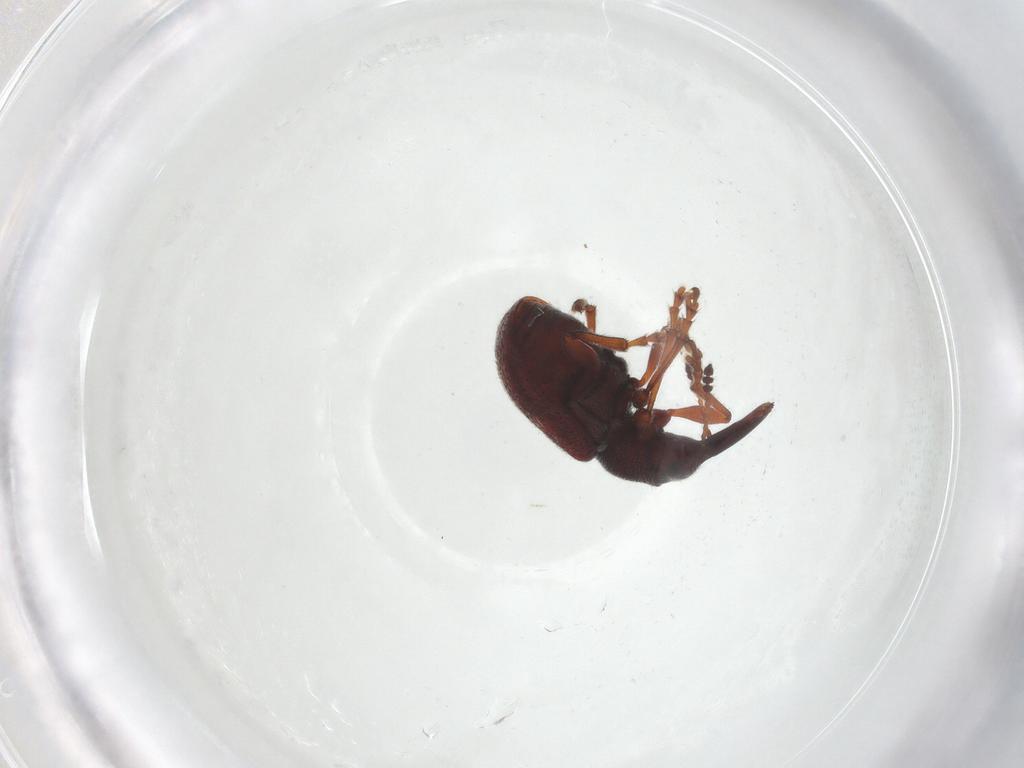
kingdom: Animalia
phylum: Arthropoda
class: Insecta
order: Coleoptera
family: Attelabidae
